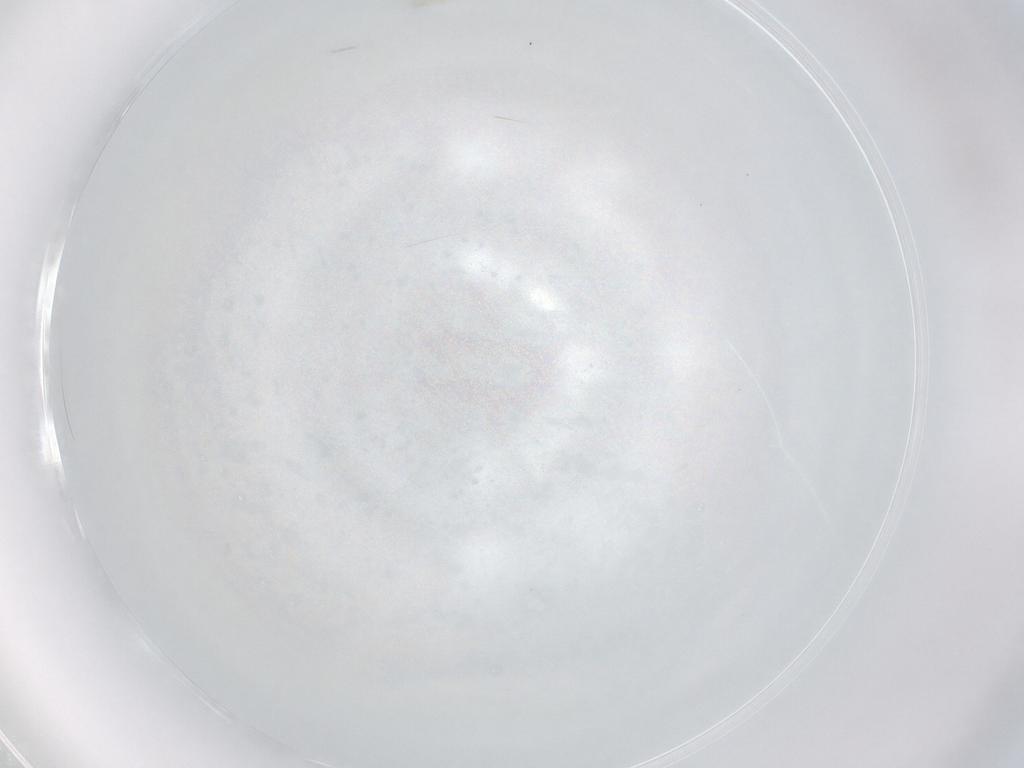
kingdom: Animalia
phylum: Arthropoda
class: Arachnida
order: Trombidiformes
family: Eupodidae
